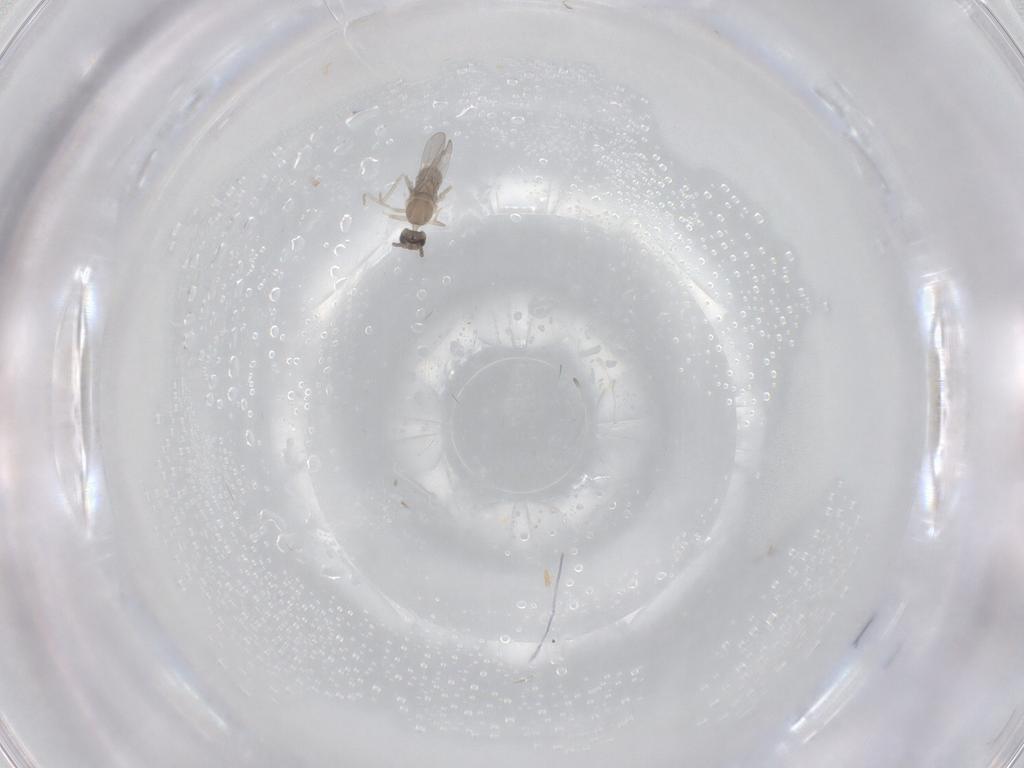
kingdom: Animalia
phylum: Arthropoda
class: Insecta
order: Diptera
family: Cecidomyiidae
